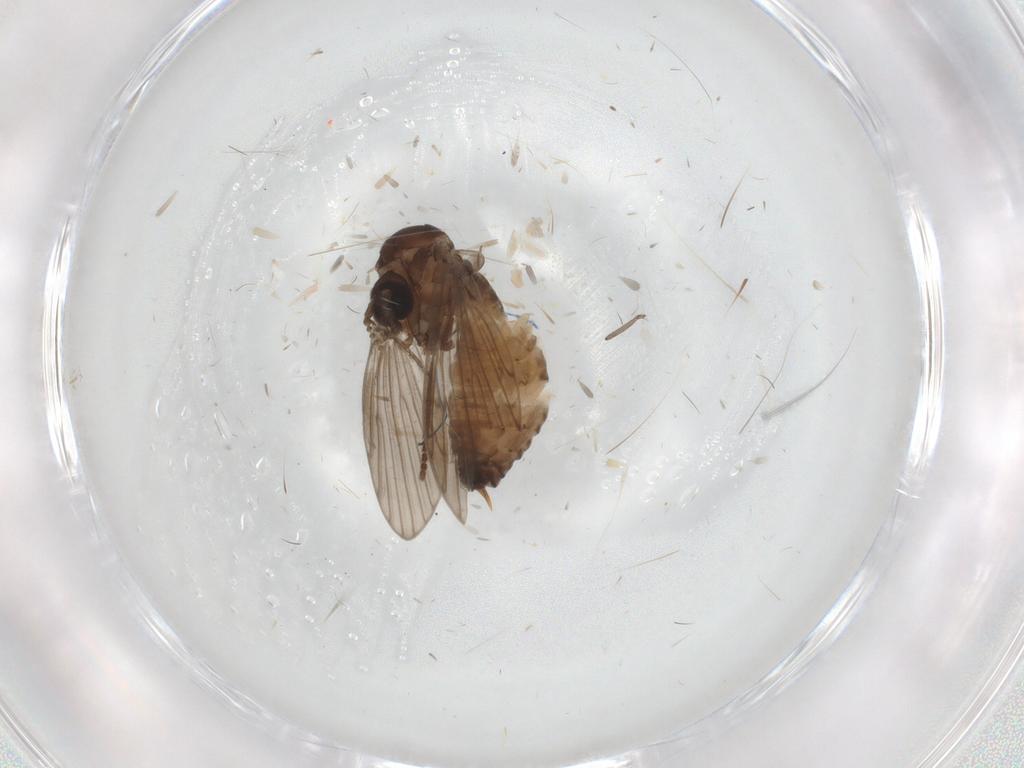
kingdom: Animalia
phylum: Arthropoda
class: Insecta
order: Diptera
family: Psychodidae
